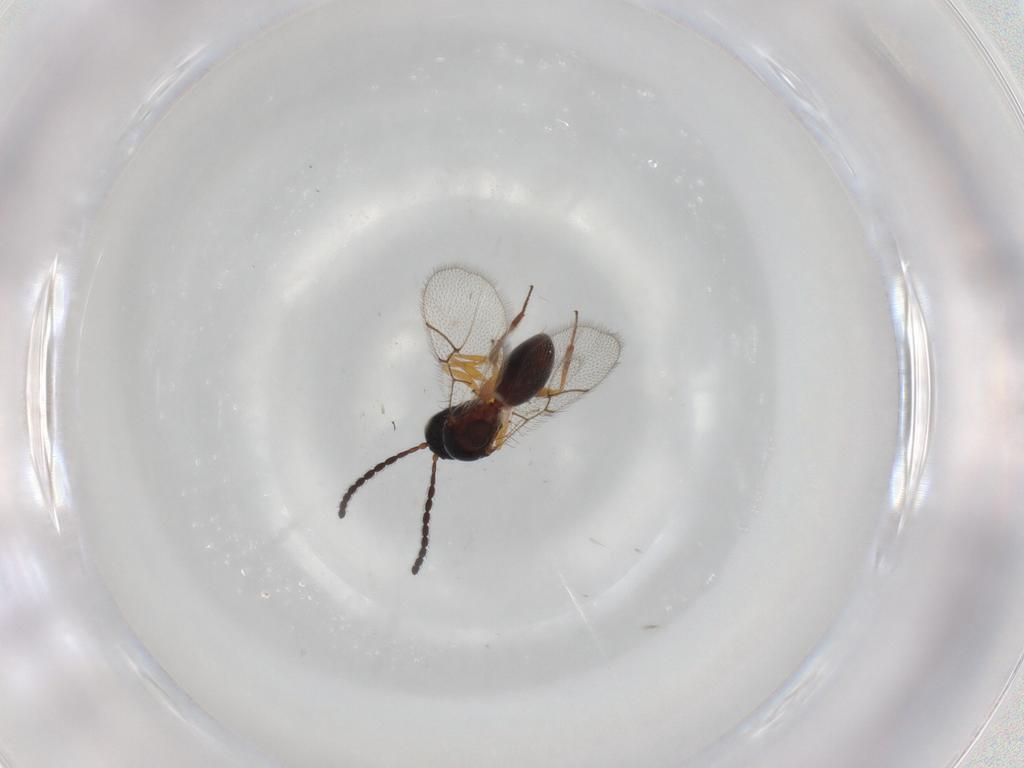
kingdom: Animalia
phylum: Arthropoda
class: Insecta
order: Hymenoptera
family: Figitidae
